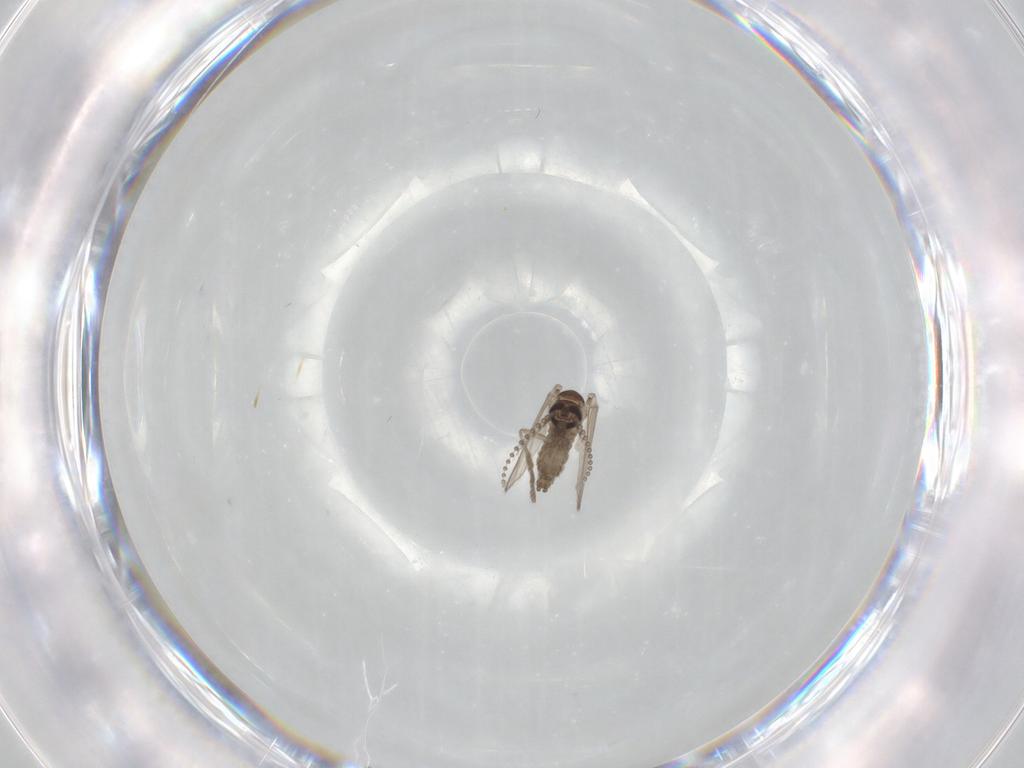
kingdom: Animalia
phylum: Arthropoda
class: Insecta
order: Diptera
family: Psychodidae
